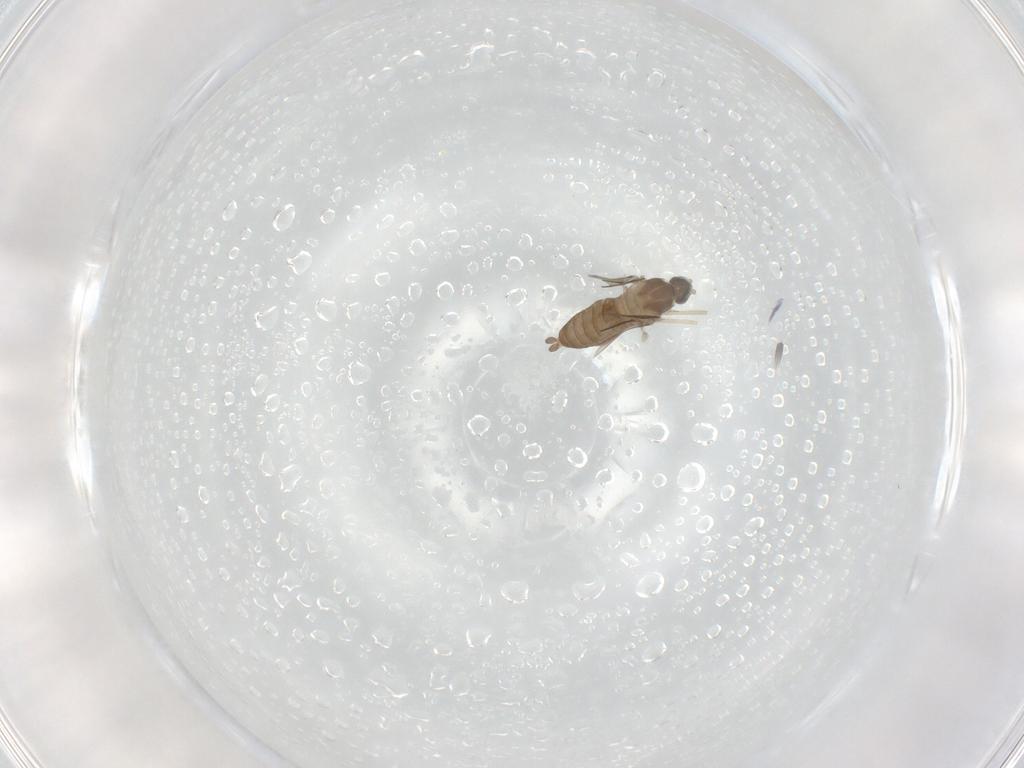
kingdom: Animalia
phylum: Arthropoda
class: Insecta
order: Diptera
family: Cecidomyiidae
